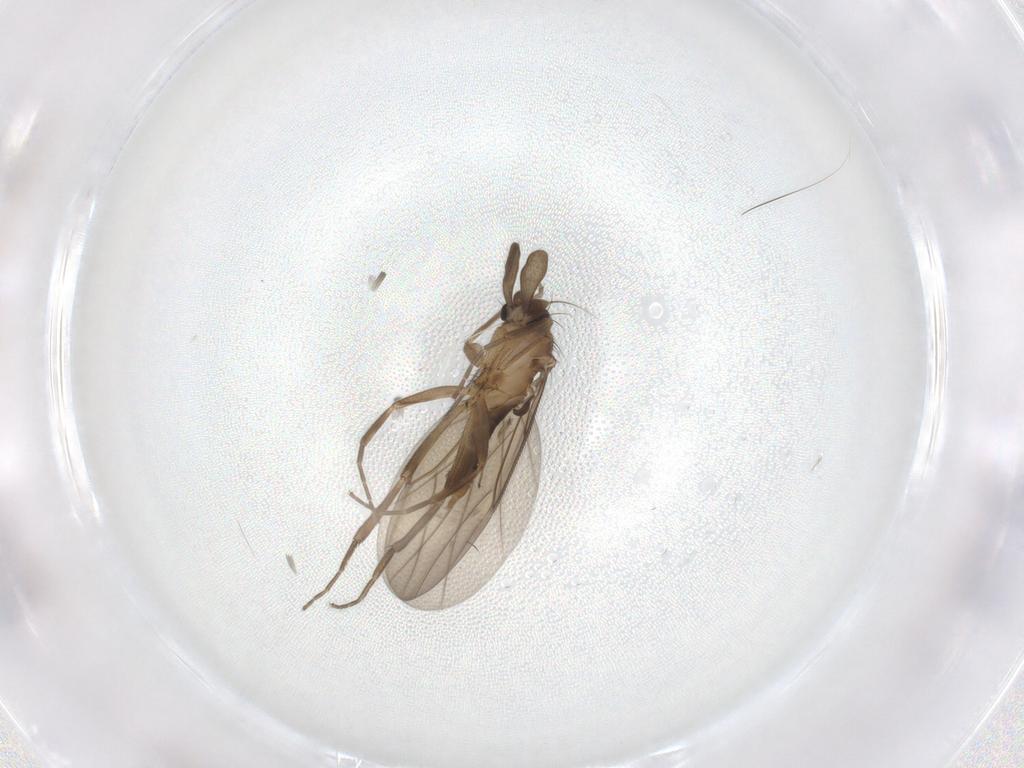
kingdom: Animalia
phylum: Arthropoda
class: Insecta
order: Diptera
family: Chironomidae
